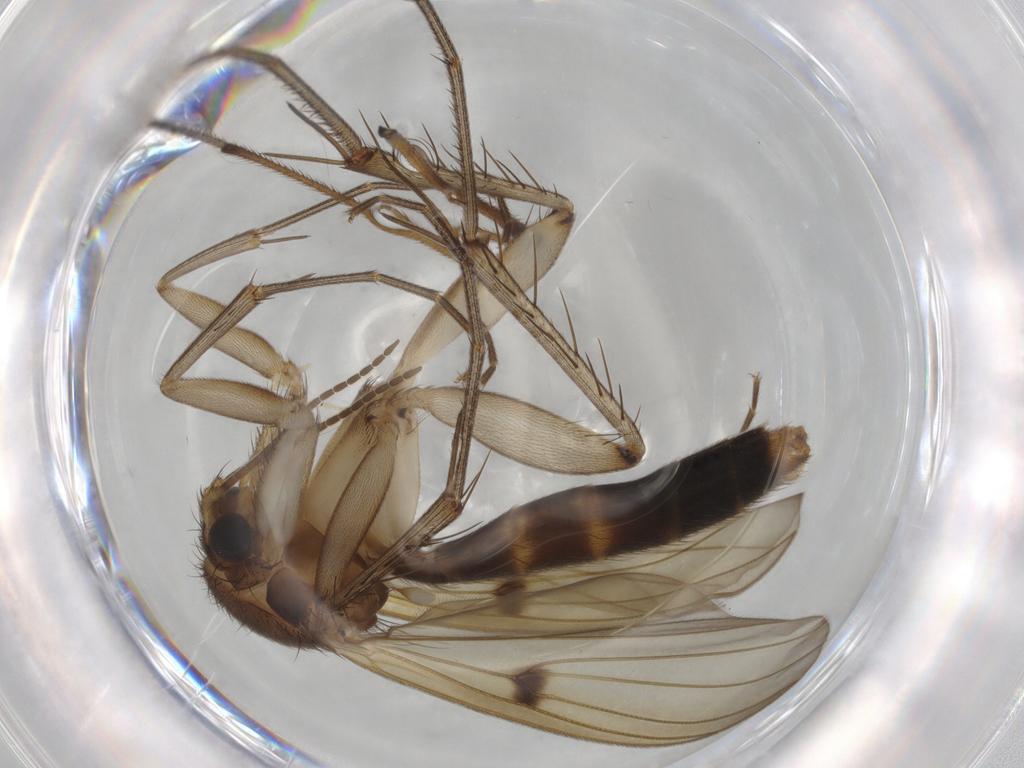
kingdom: Animalia
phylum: Arthropoda
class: Insecta
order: Diptera
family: Mycetophilidae
